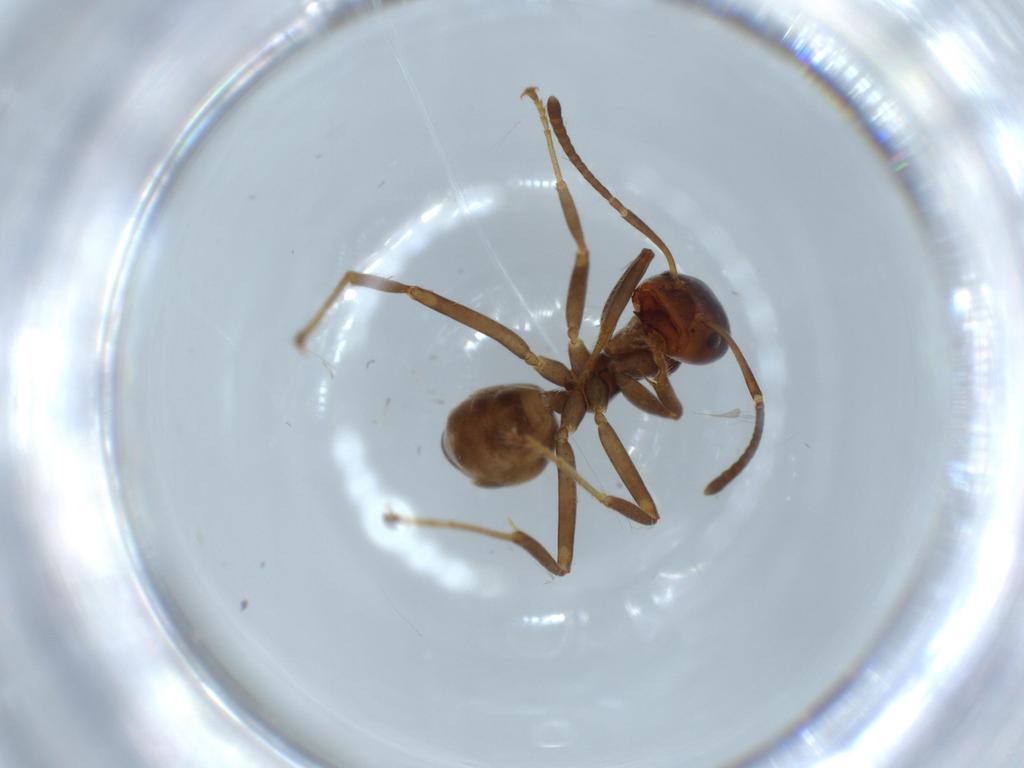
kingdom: Animalia
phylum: Arthropoda
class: Insecta
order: Hymenoptera
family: Formicidae
